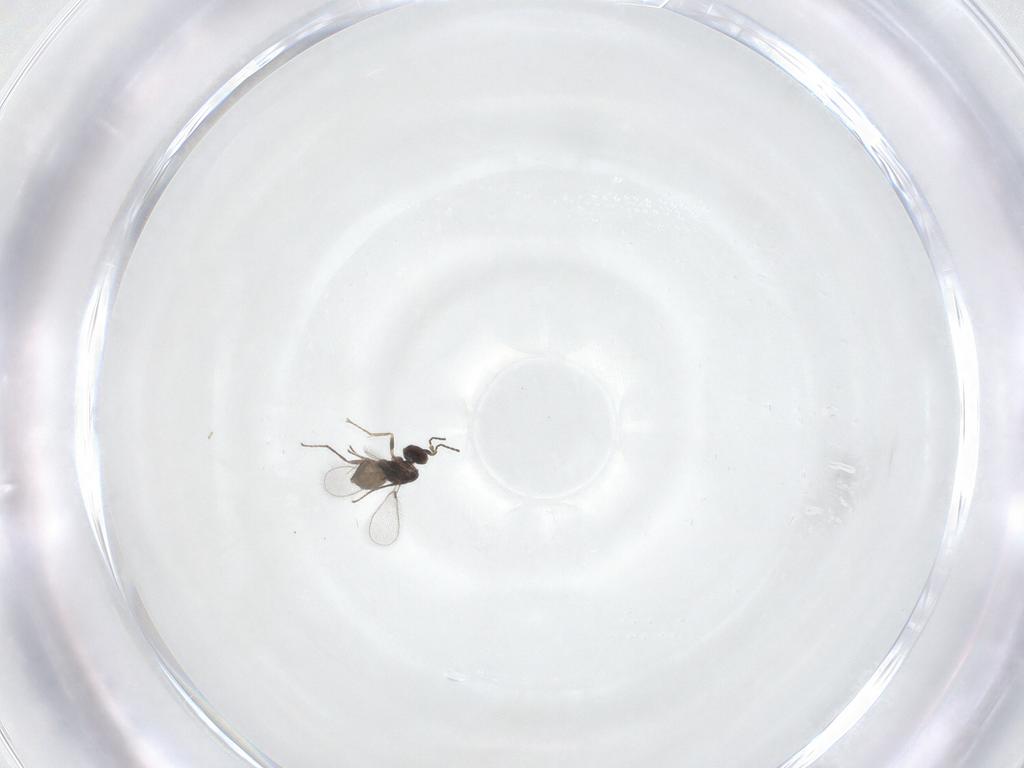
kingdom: Animalia
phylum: Arthropoda
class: Insecta
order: Hymenoptera
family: Mymaridae
